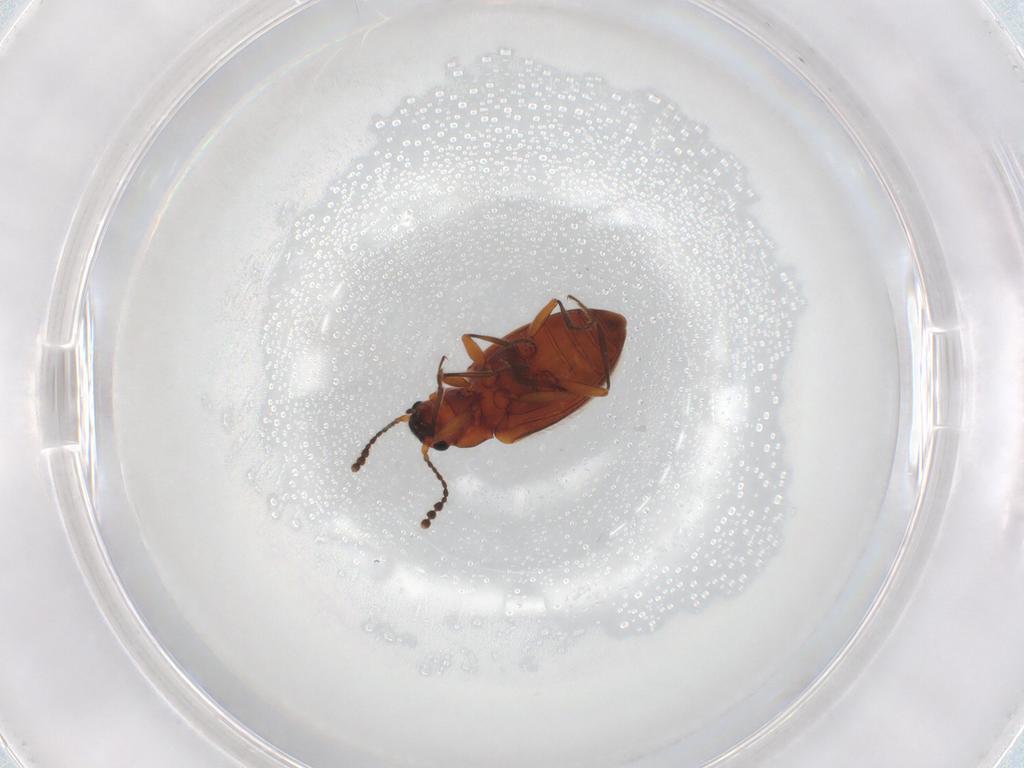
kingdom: Animalia
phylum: Arthropoda
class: Insecta
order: Coleoptera
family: Erotylidae
